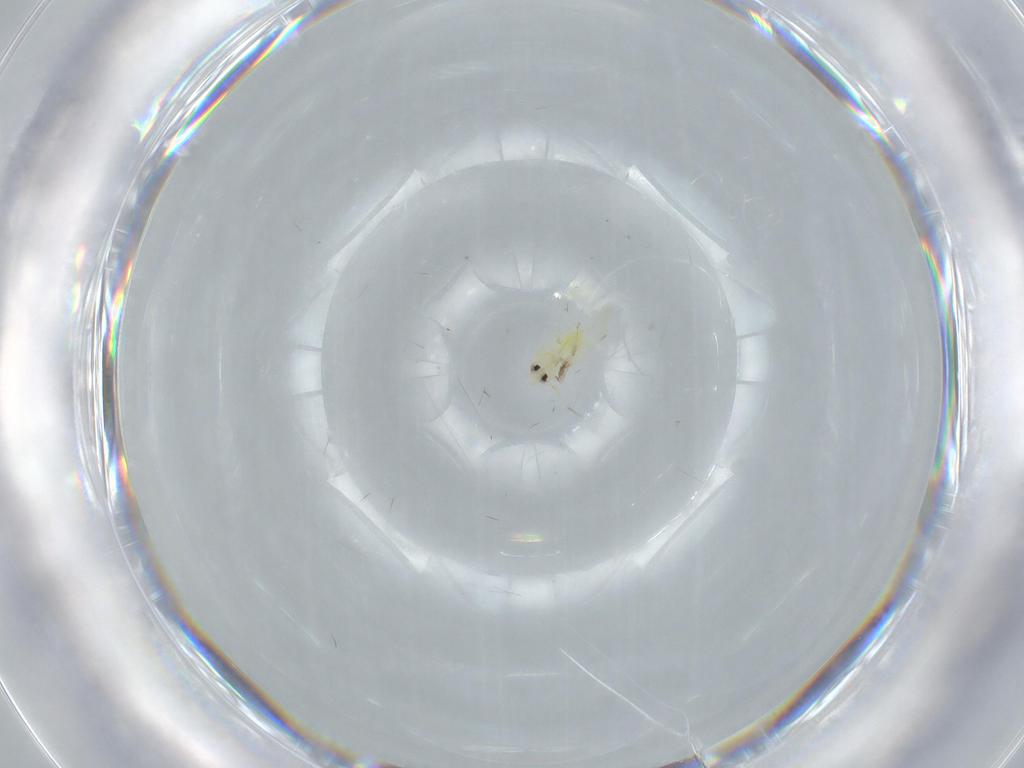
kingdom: Animalia
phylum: Arthropoda
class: Insecta
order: Hemiptera
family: Aleyrodidae
